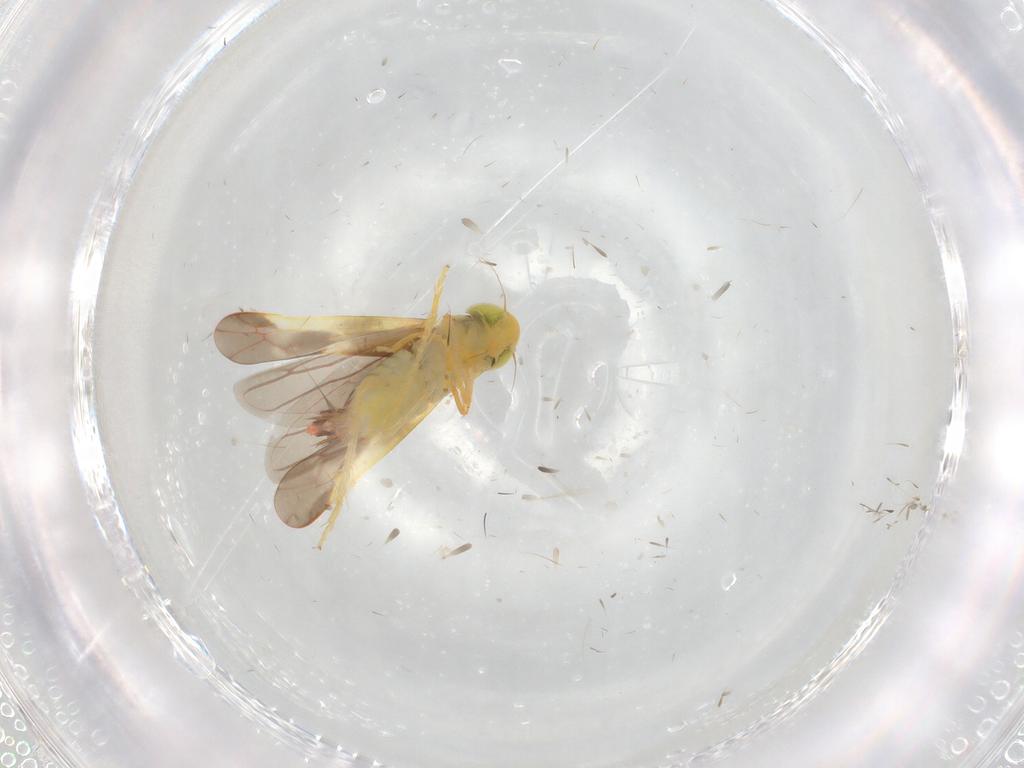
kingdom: Animalia
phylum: Arthropoda
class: Insecta
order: Hemiptera
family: Cicadellidae
